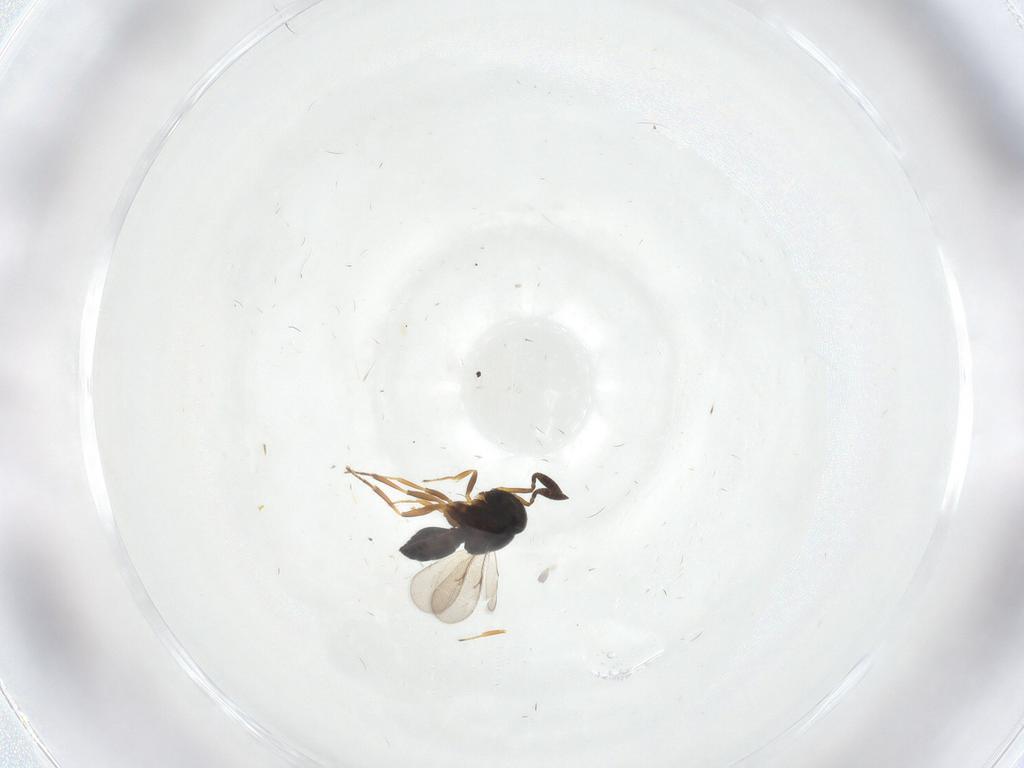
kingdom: Animalia
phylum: Arthropoda
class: Insecta
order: Hymenoptera
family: Scelionidae
